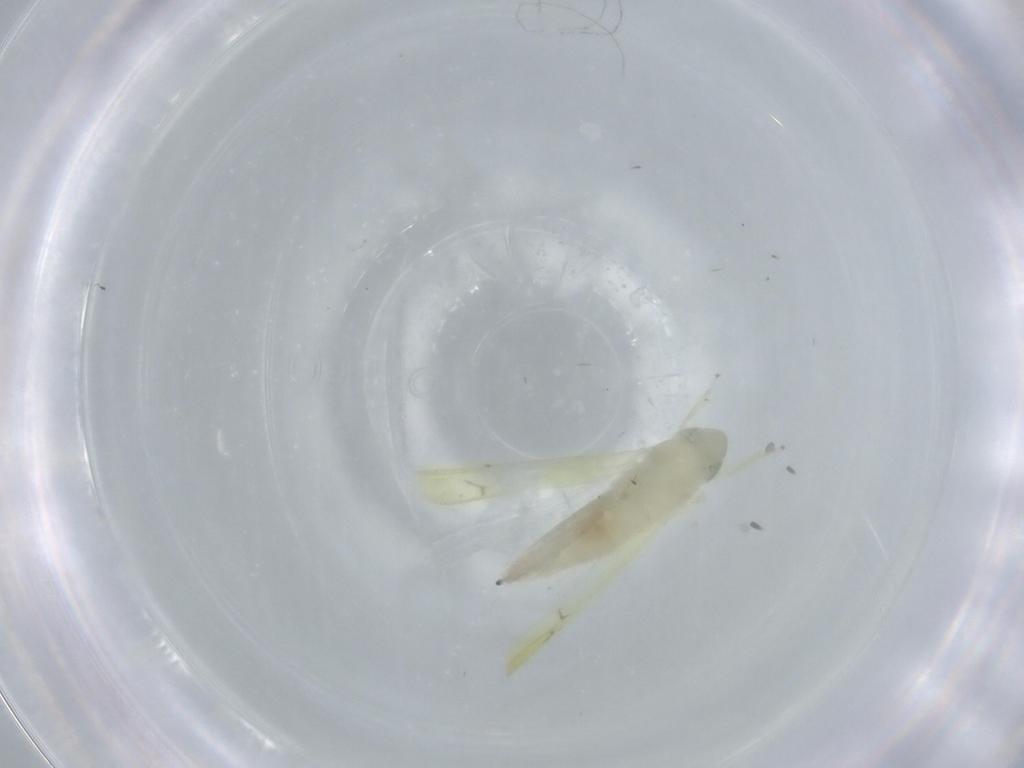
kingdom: Animalia
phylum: Arthropoda
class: Insecta
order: Hemiptera
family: Cicadellidae
